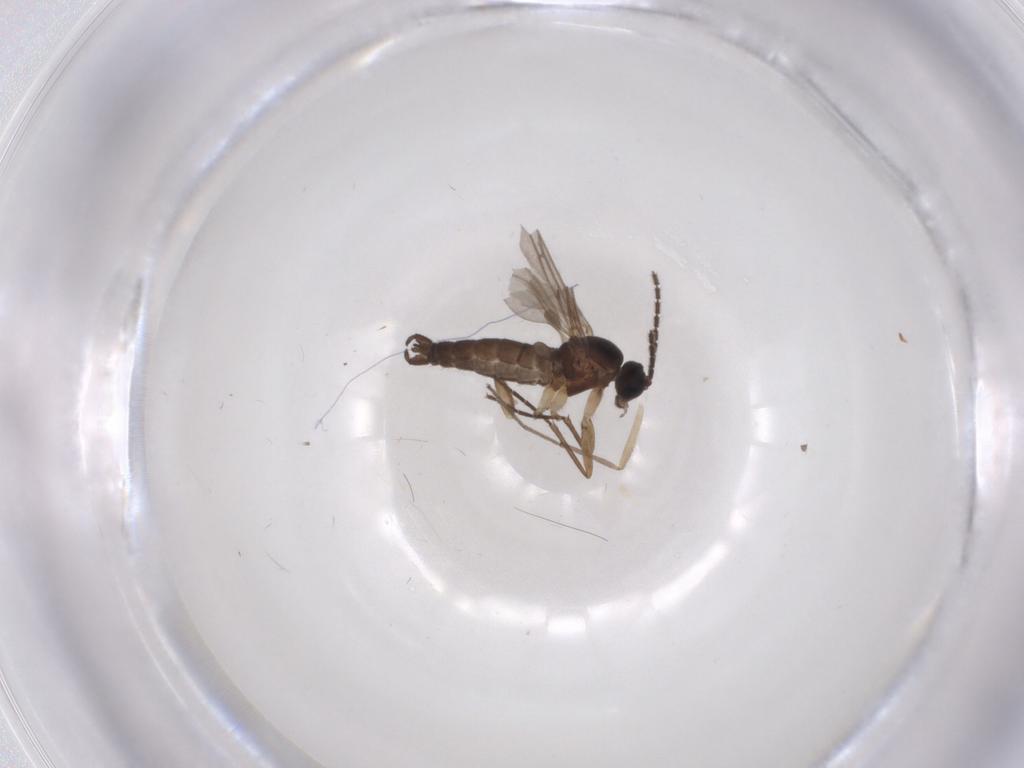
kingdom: Animalia
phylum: Arthropoda
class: Insecta
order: Diptera
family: Sciaridae
